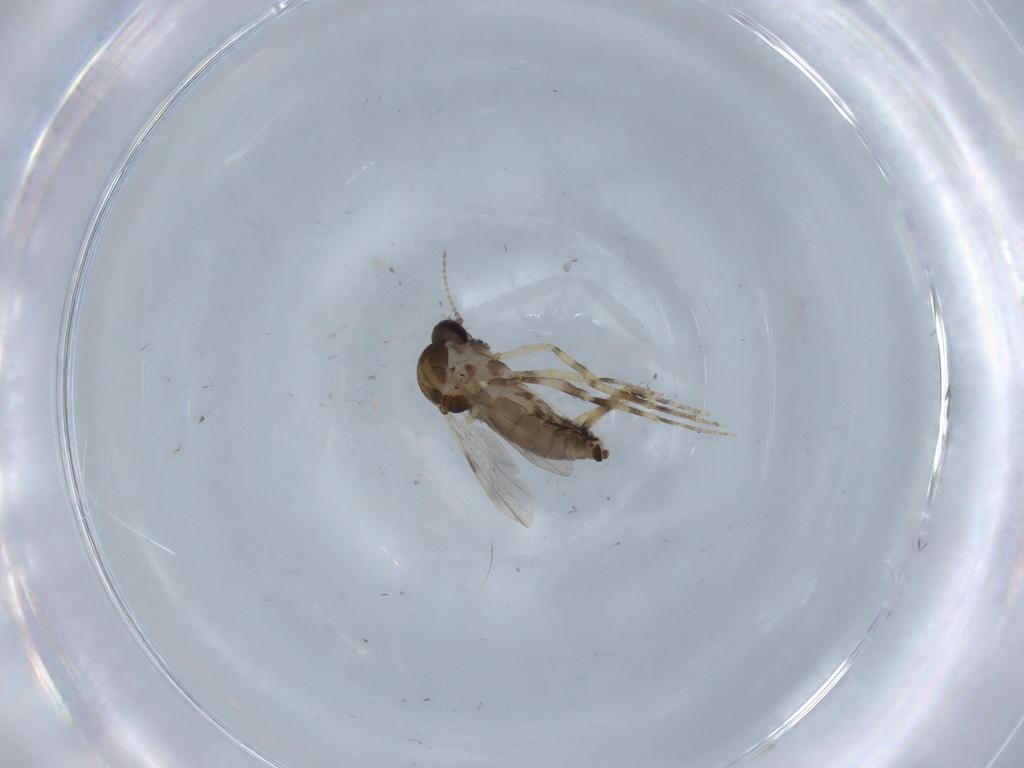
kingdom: Animalia
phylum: Arthropoda
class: Insecta
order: Diptera
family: Ceratopogonidae
